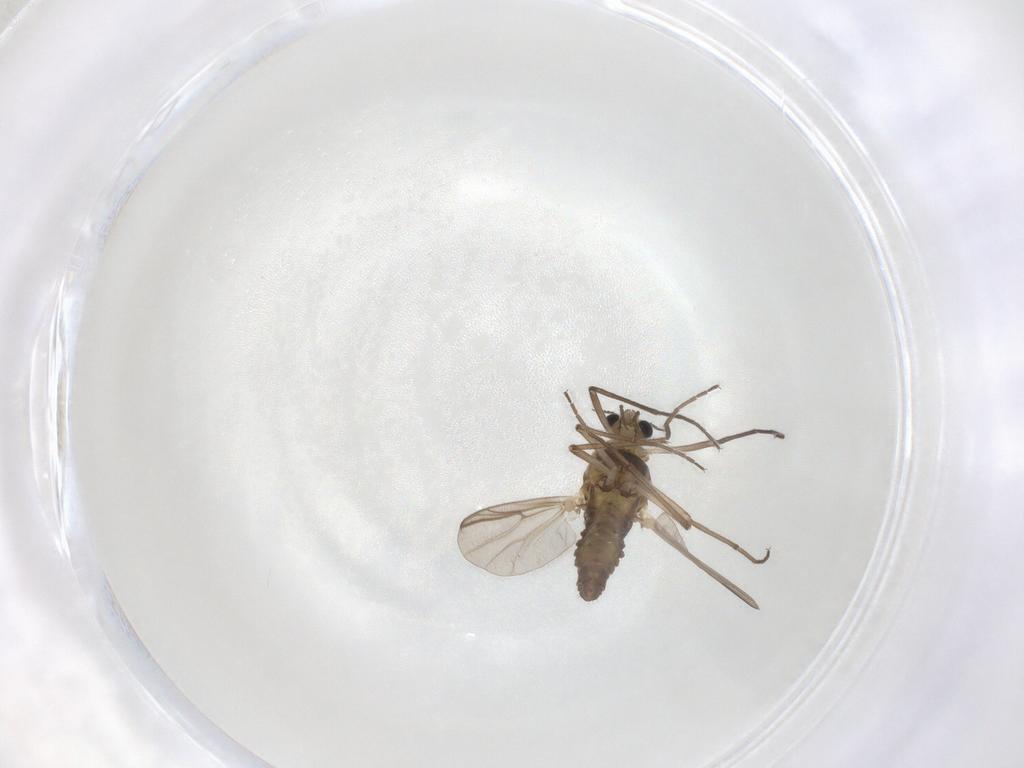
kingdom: Animalia
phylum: Arthropoda
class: Insecta
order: Diptera
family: Chironomidae
